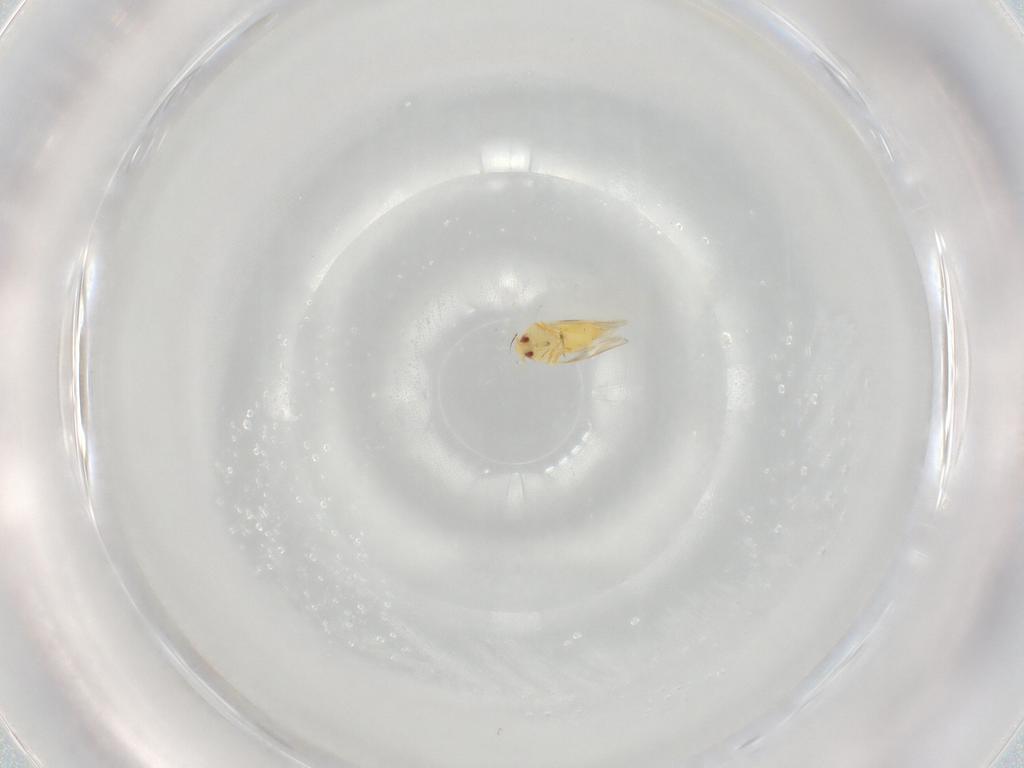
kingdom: Animalia
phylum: Arthropoda
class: Insecta
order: Hemiptera
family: Aleyrodidae
